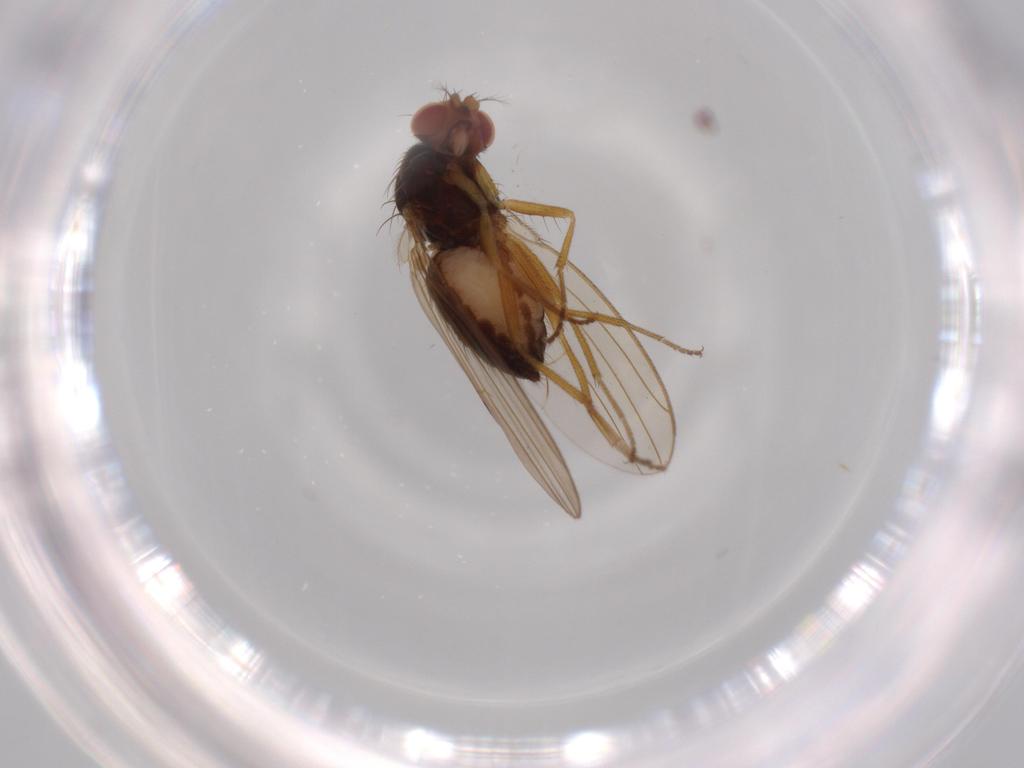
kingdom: Animalia
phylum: Arthropoda
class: Insecta
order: Diptera
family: Drosophilidae
